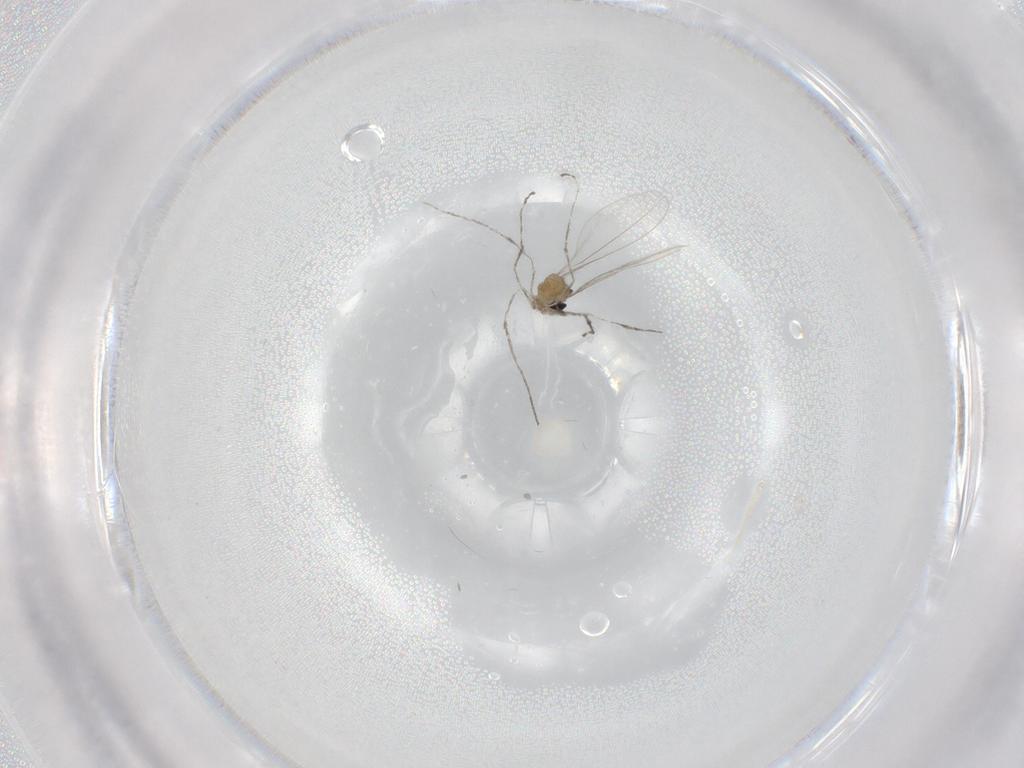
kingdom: Animalia
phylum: Arthropoda
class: Insecta
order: Diptera
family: Cecidomyiidae
